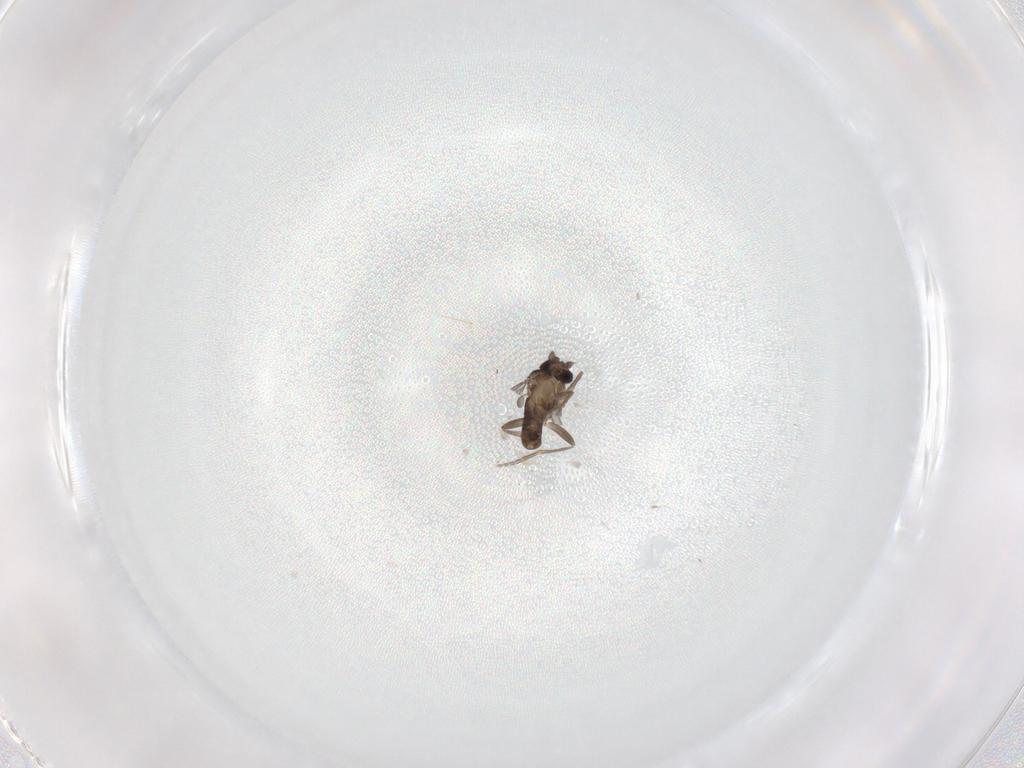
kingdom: Animalia
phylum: Arthropoda
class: Insecta
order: Diptera
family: Phoridae
